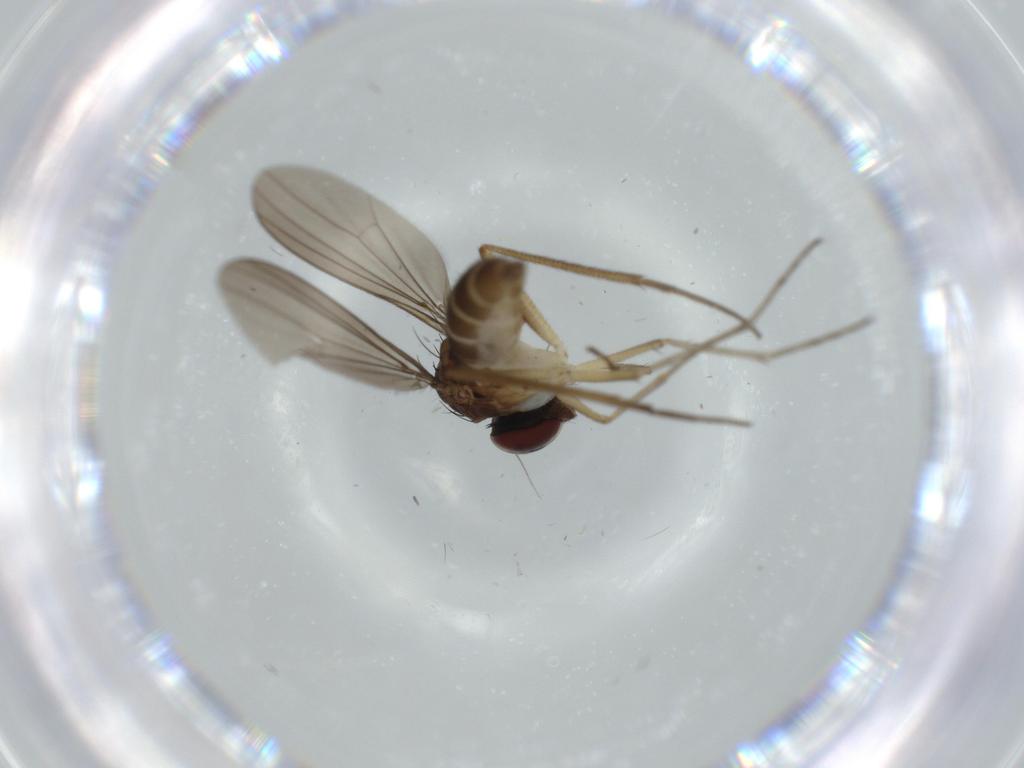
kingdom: Animalia
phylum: Arthropoda
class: Insecta
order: Diptera
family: Dolichopodidae
